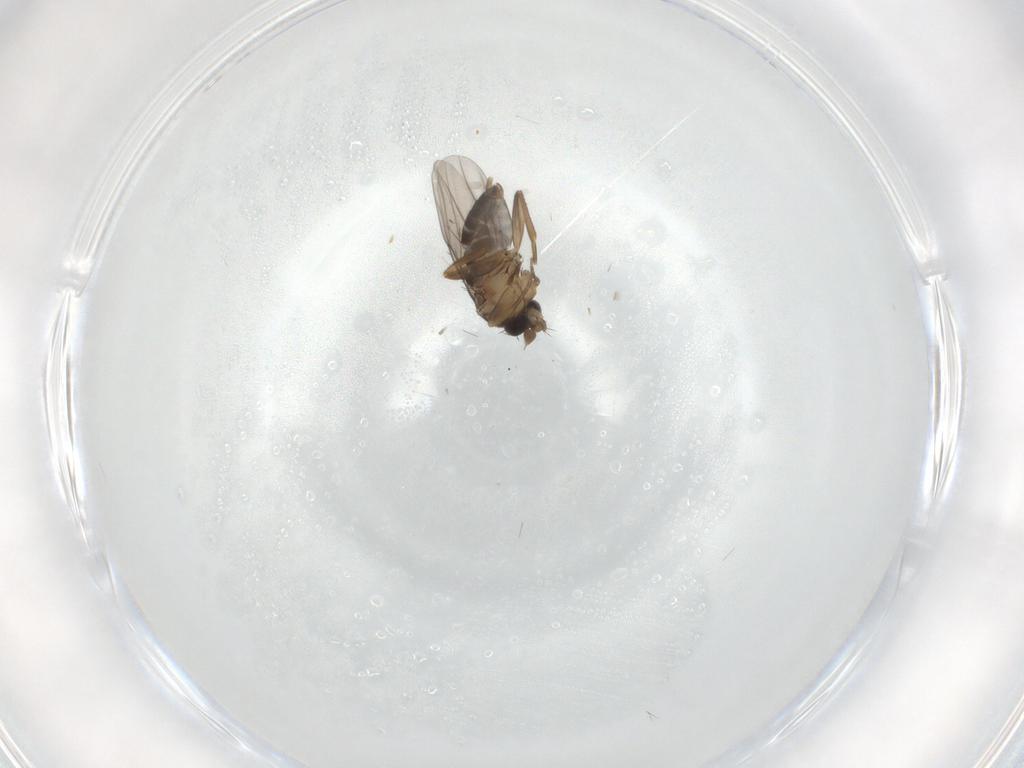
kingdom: Animalia
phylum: Arthropoda
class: Insecta
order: Diptera
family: Phoridae
